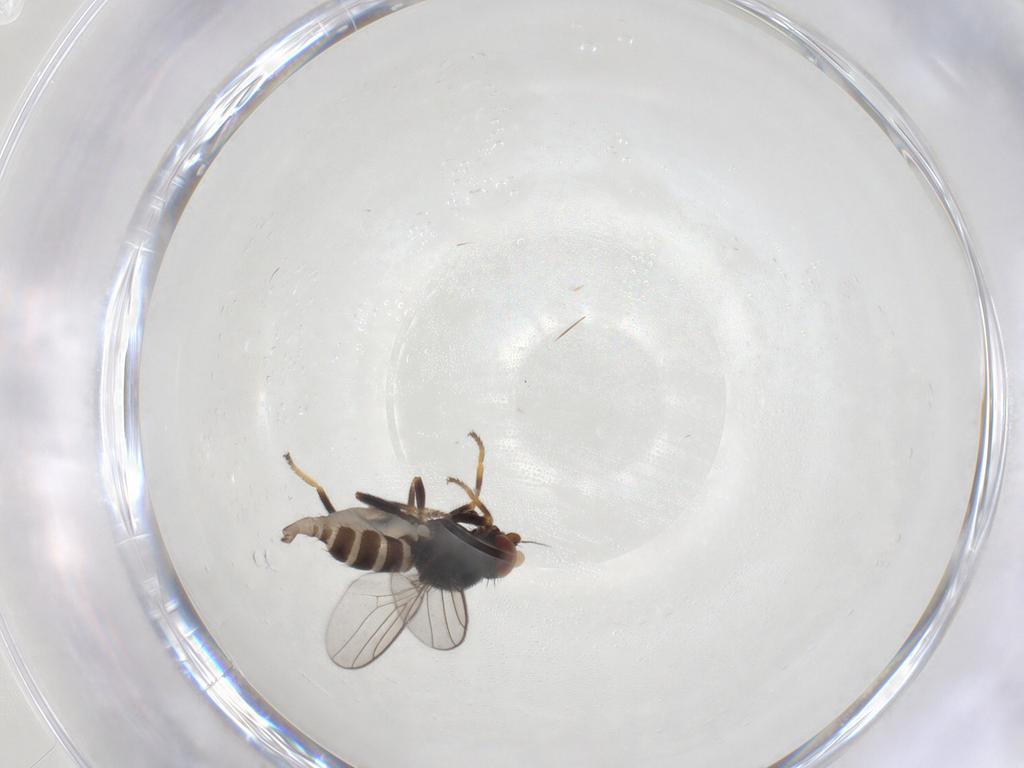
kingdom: Animalia
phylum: Arthropoda
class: Insecta
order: Diptera
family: Chloropidae
